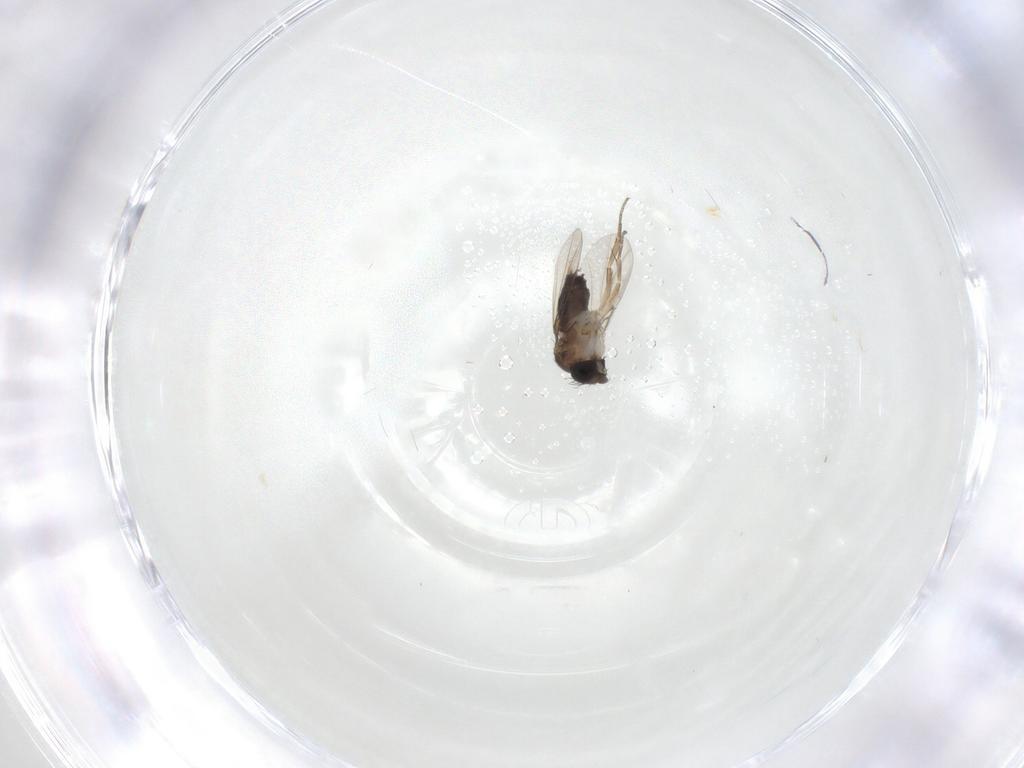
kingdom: Animalia
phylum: Arthropoda
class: Insecta
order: Diptera
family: Phoridae
